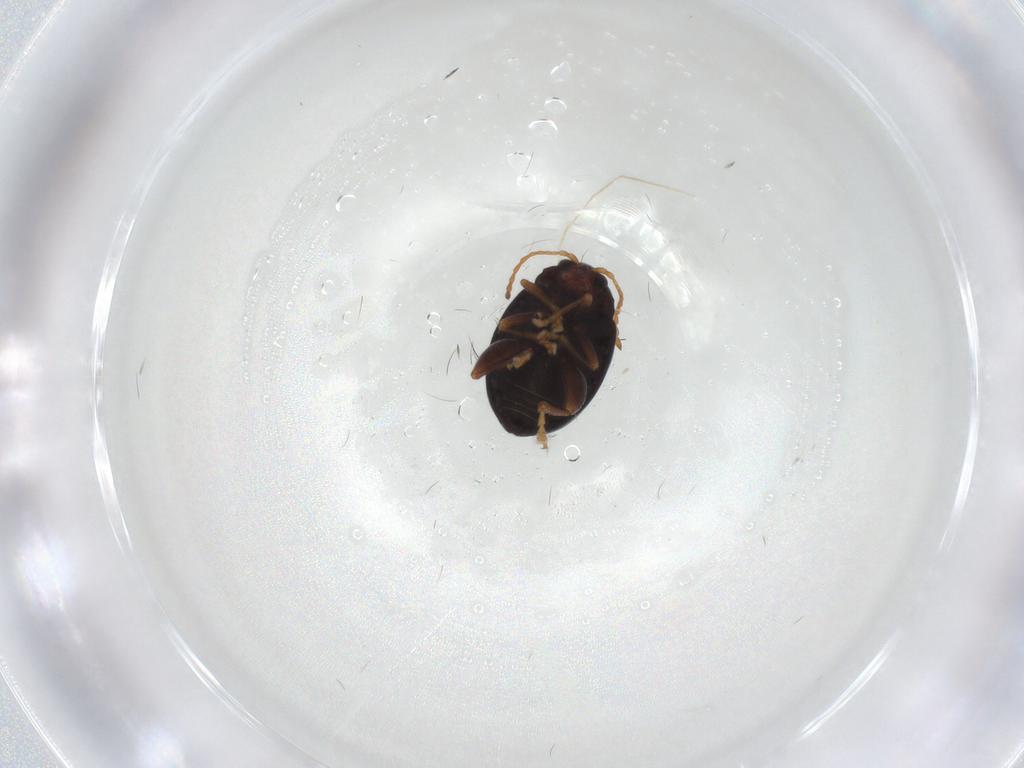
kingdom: Animalia
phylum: Arthropoda
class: Insecta
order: Coleoptera
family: Chrysomelidae
